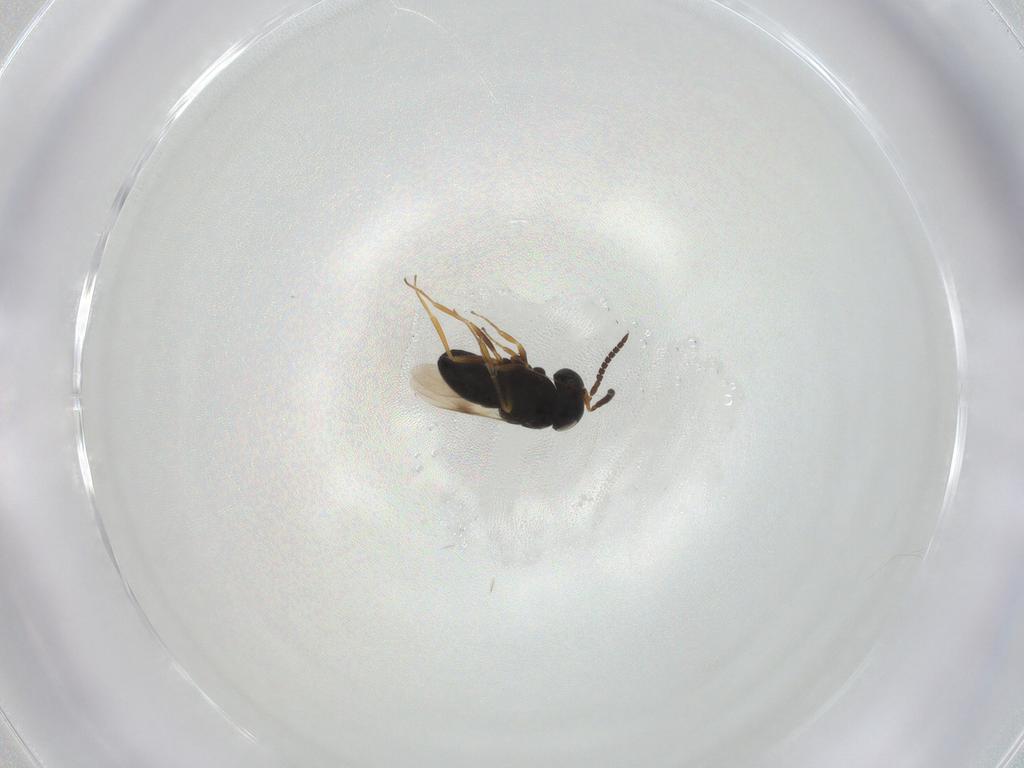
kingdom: Animalia
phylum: Arthropoda
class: Insecta
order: Hymenoptera
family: Scelionidae
